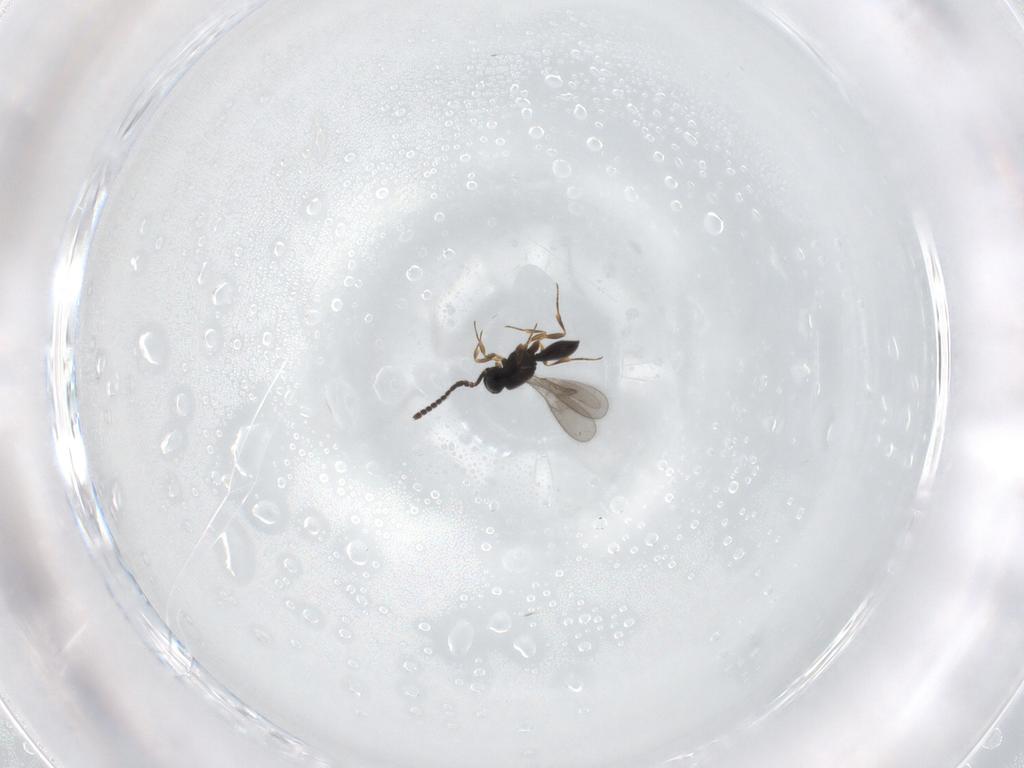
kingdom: Animalia
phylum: Arthropoda
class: Insecta
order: Hymenoptera
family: Scelionidae
